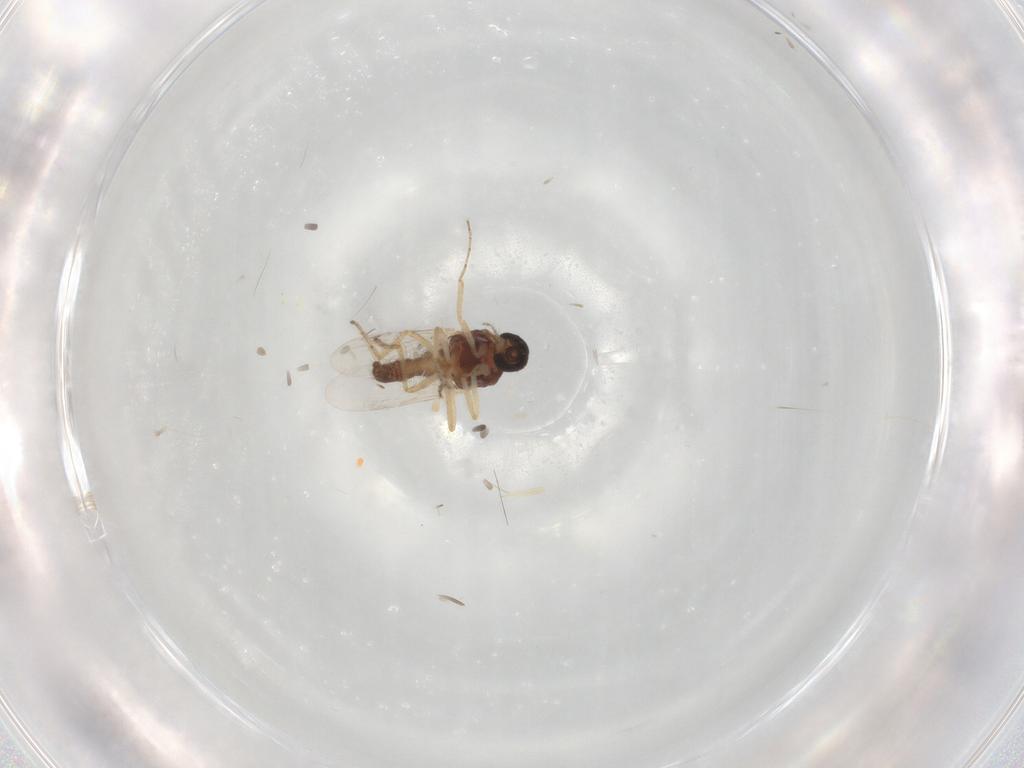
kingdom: Animalia
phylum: Arthropoda
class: Insecta
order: Diptera
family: Ceratopogonidae
